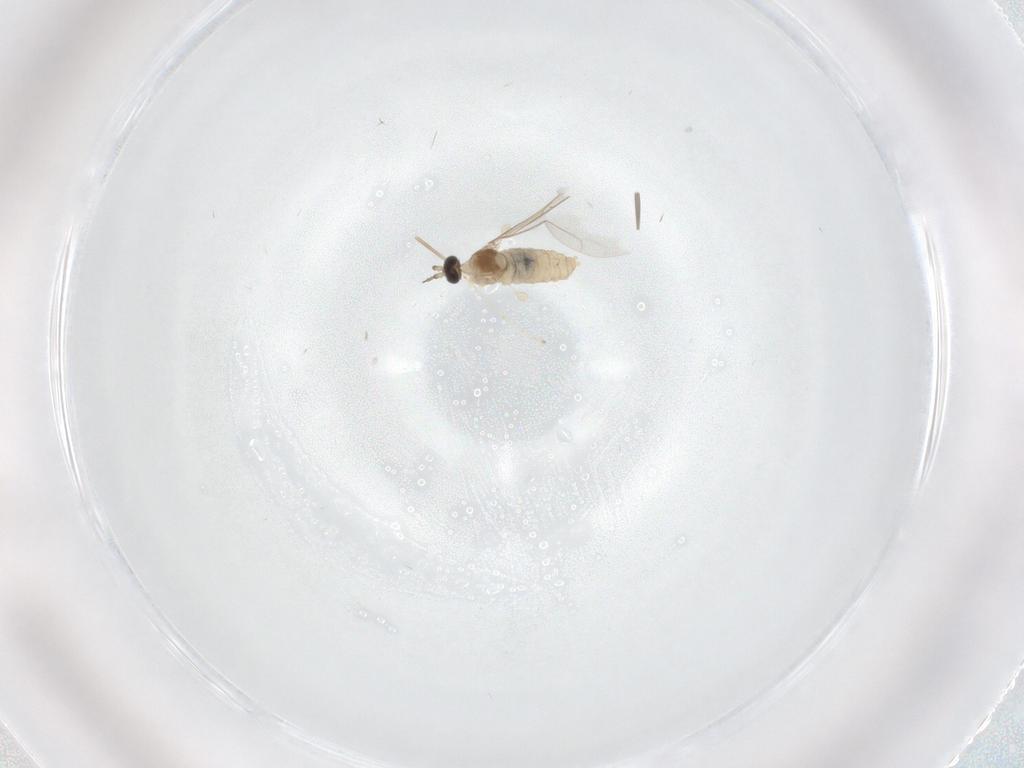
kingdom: Animalia
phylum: Arthropoda
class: Insecta
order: Diptera
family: Cecidomyiidae
